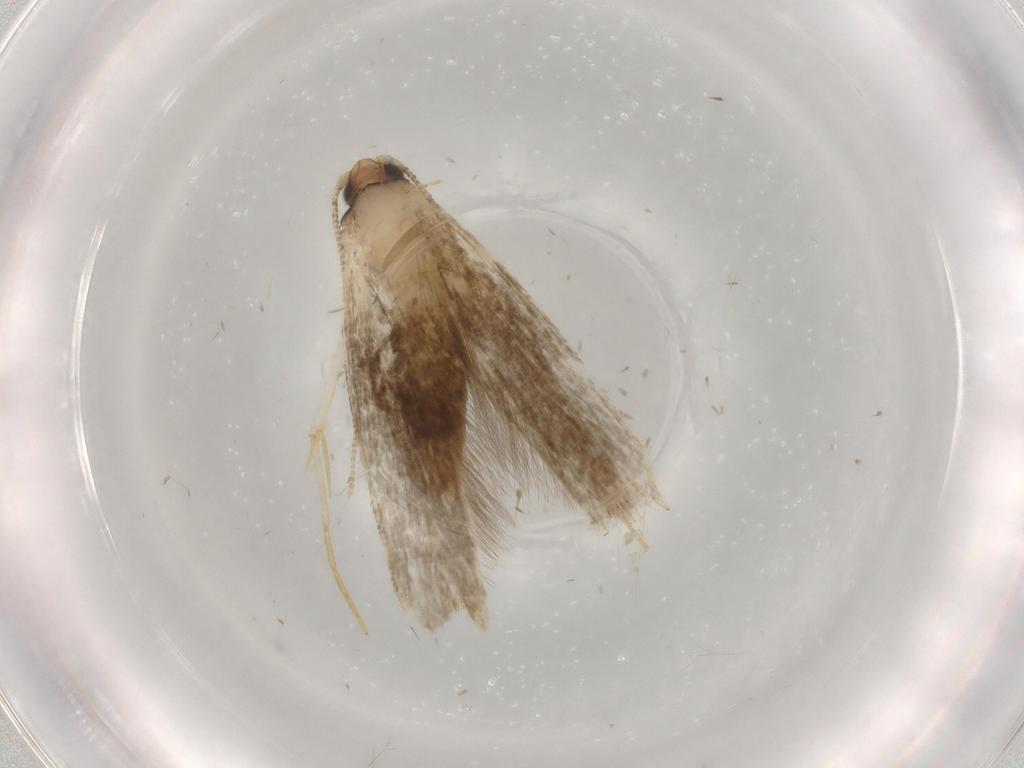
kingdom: Animalia
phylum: Arthropoda
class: Insecta
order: Lepidoptera
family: Tineidae
